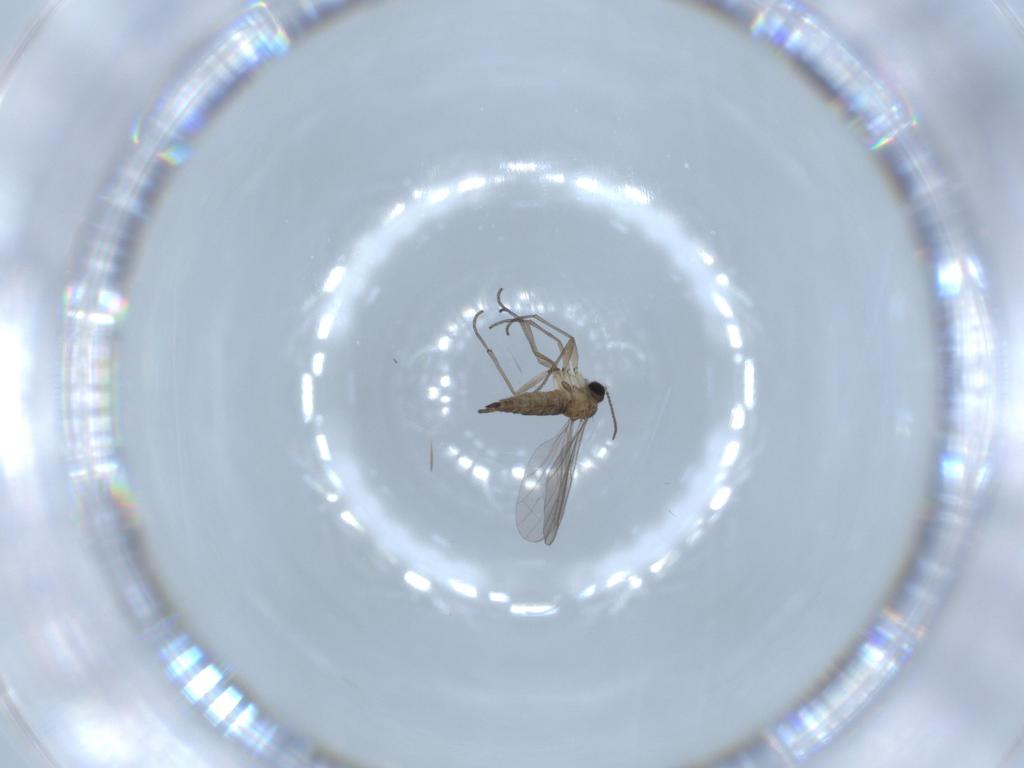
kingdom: Animalia
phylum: Arthropoda
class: Insecta
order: Diptera
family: Sciaridae
